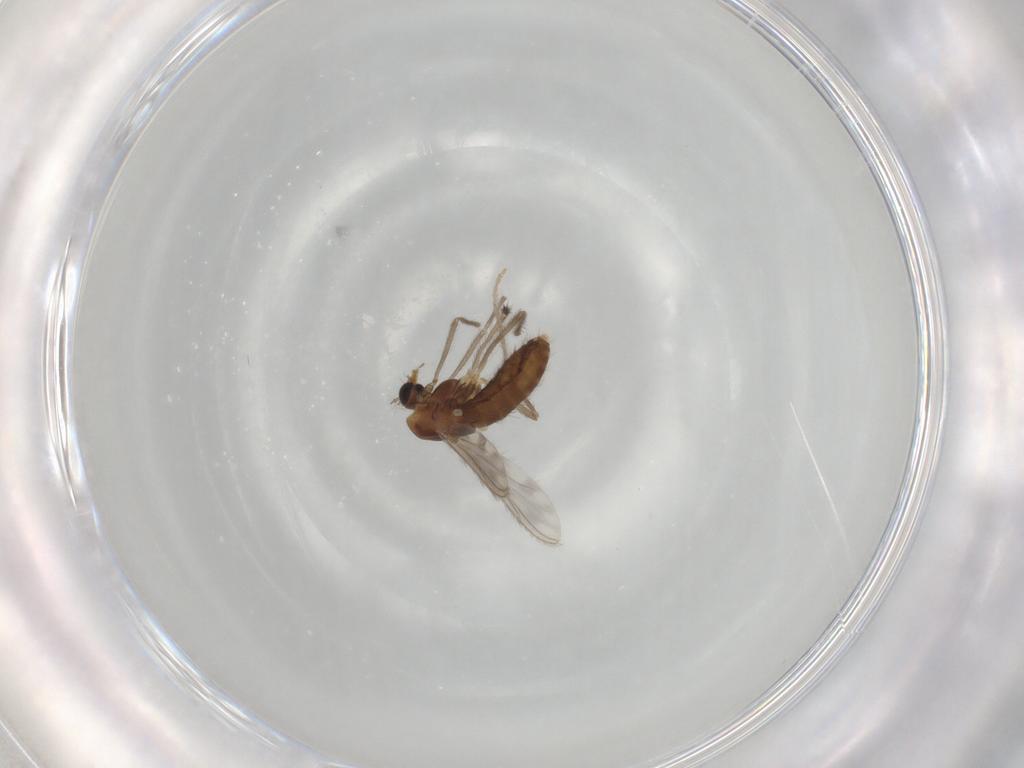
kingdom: Animalia
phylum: Arthropoda
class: Insecta
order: Diptera
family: Chironomidae
